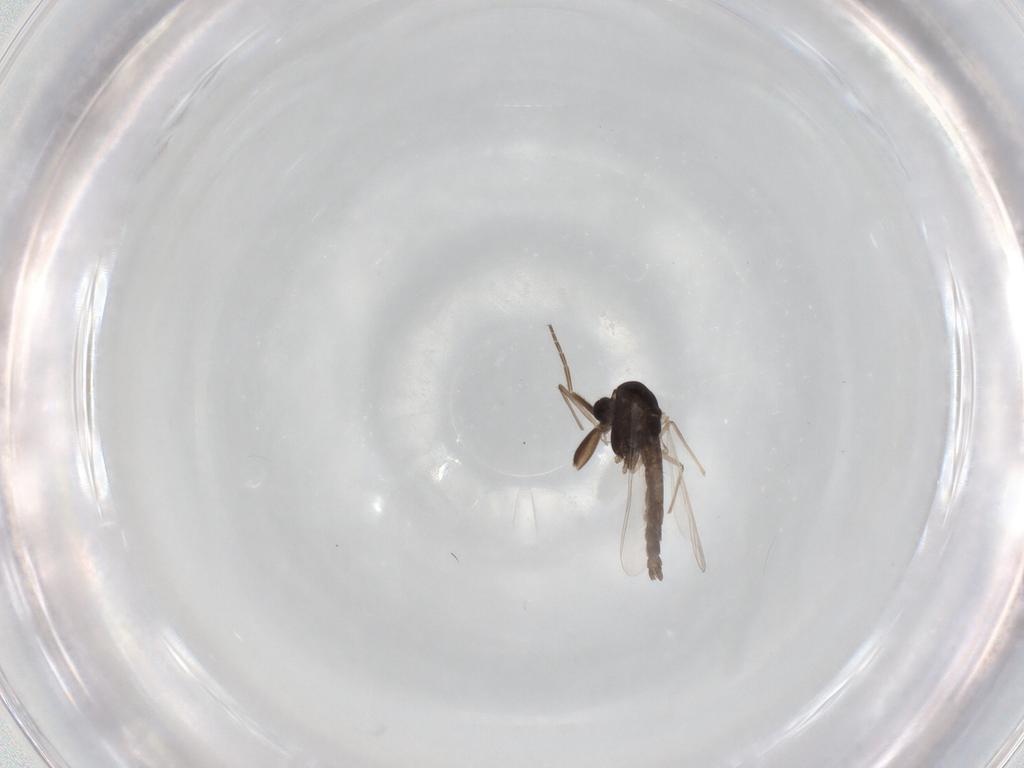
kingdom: Animalia
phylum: Arthropoda
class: Insecta
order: Diptera
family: Chironomidae
